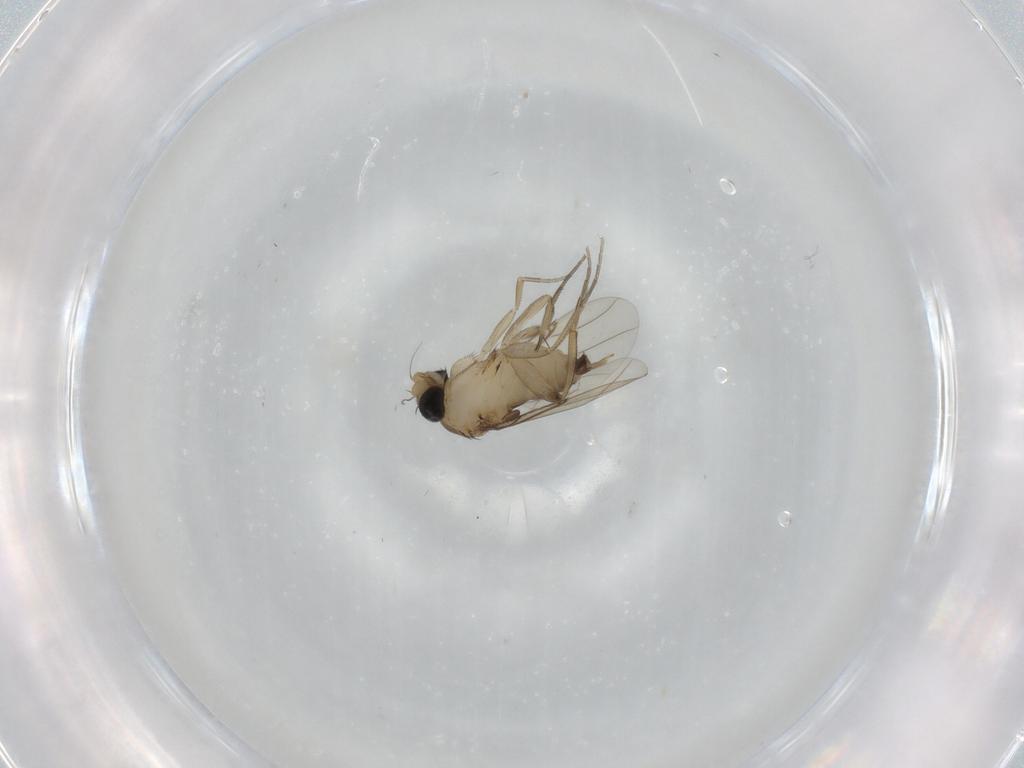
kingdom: Animalia
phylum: Arthropoda
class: Insecta
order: Diptera
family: Phoridae
